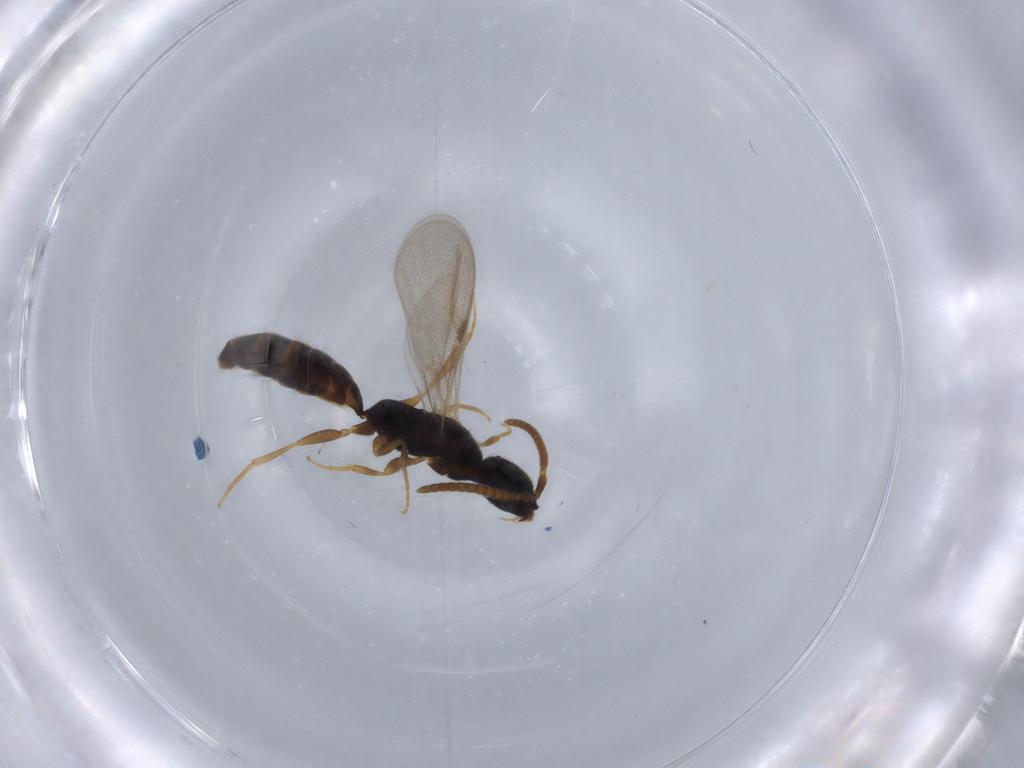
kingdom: Animalia
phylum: Arthropoda
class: Insecta
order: Hymenoptera
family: Bethylidae
